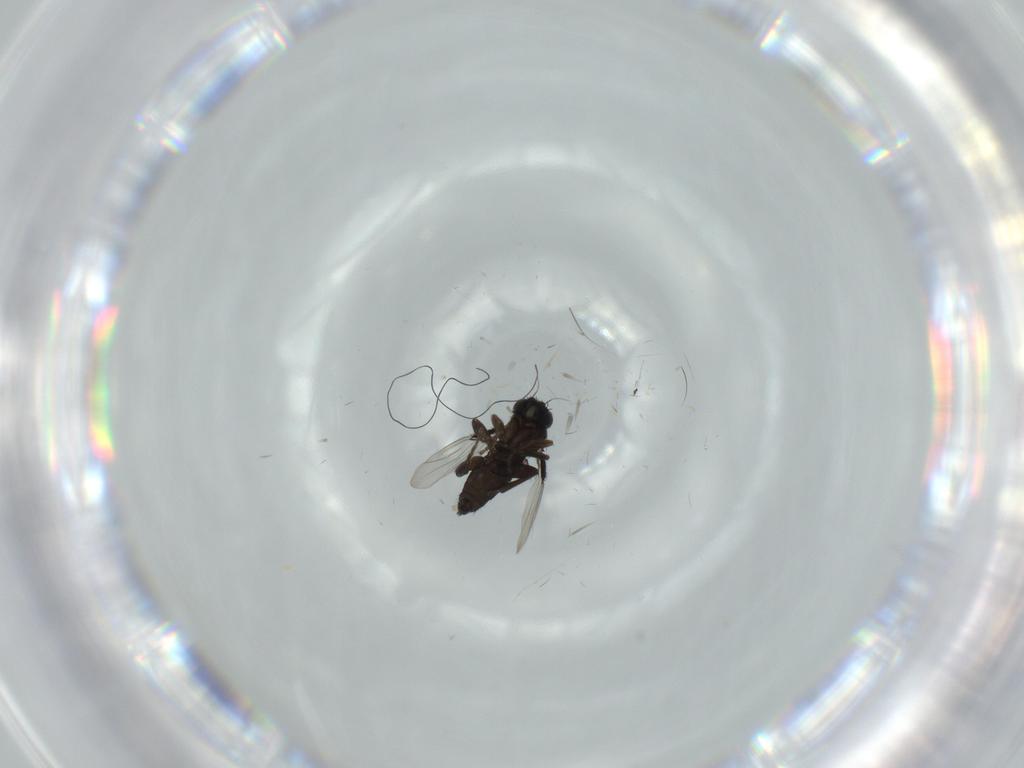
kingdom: Animalia
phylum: Arthropoda
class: Insecta
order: Diptera
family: Phoridae
